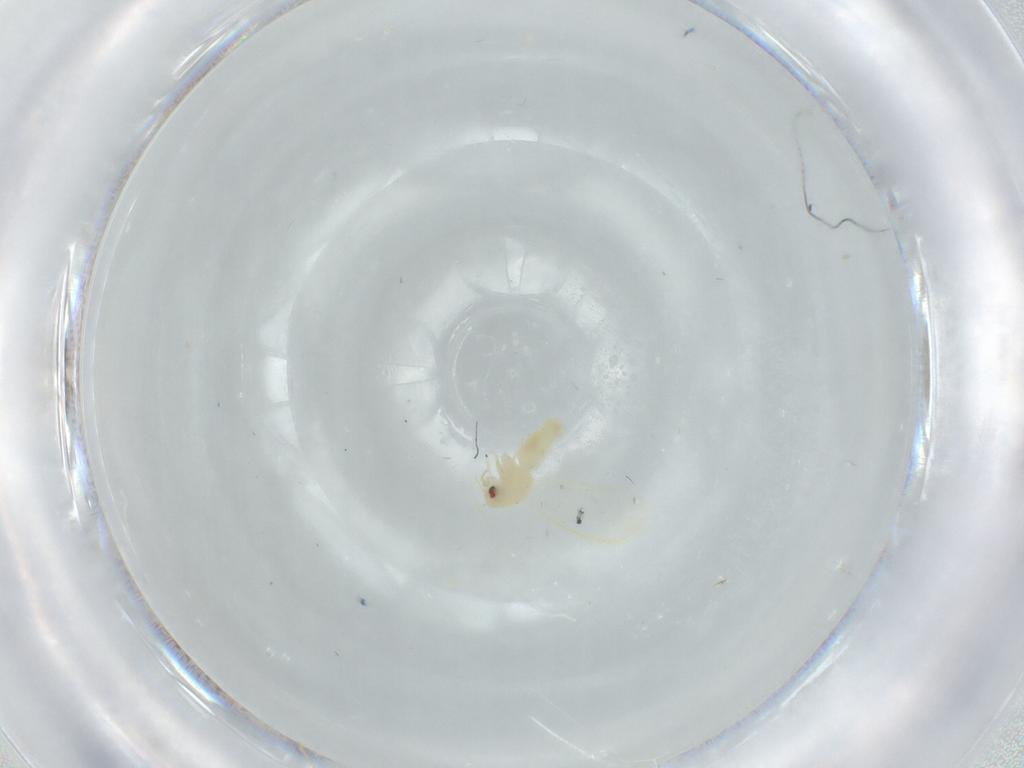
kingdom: Animalia
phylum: Arthropoda
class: Insecta
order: Hemiptera
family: Aleyrodidae
